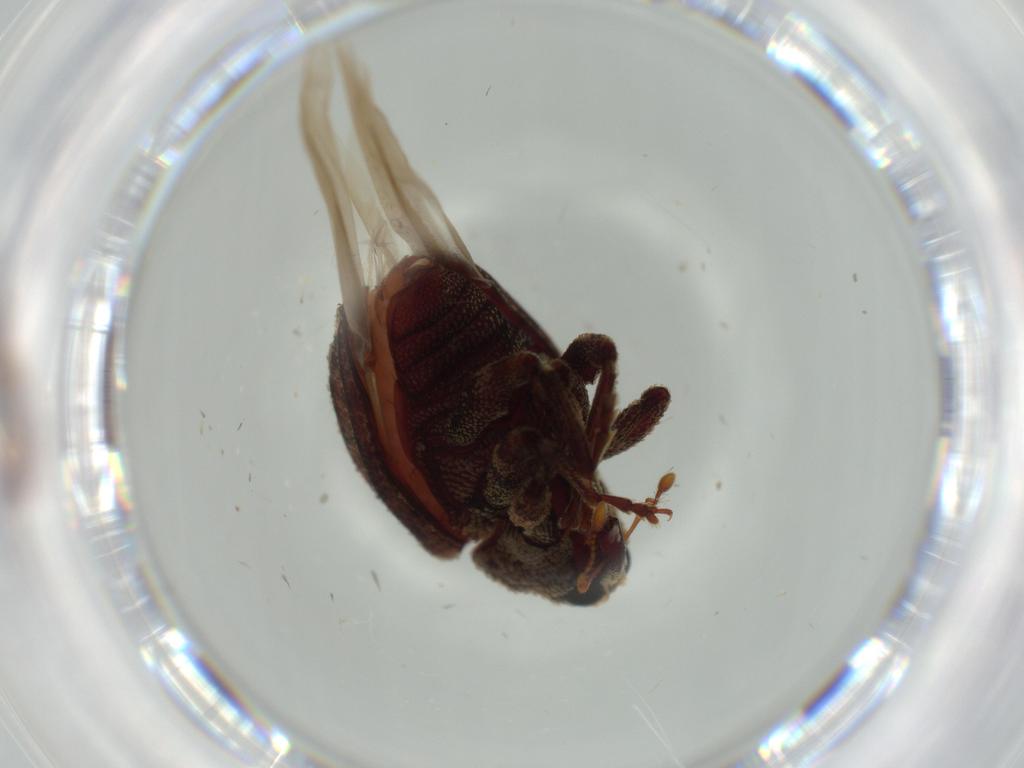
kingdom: Animalia
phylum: Arthropoda
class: Insecta
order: Coleoptera
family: Curculionidae
